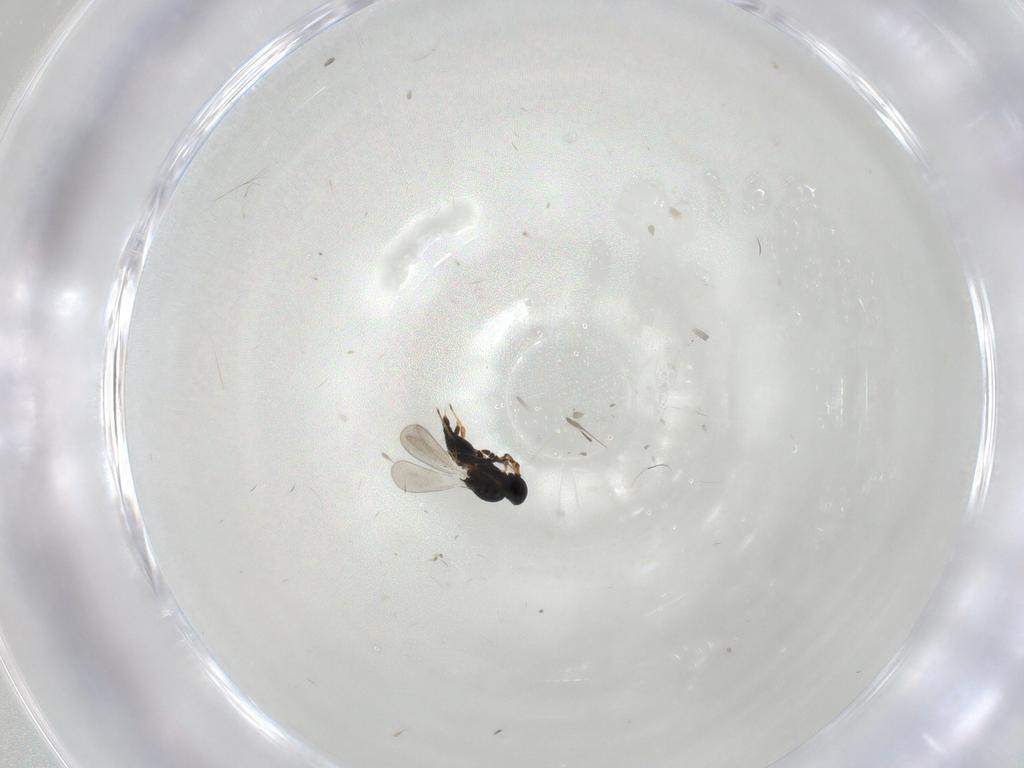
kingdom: Animalia
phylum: Arthropoda
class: Insecta
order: Hymenoptera
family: Platygastridae
